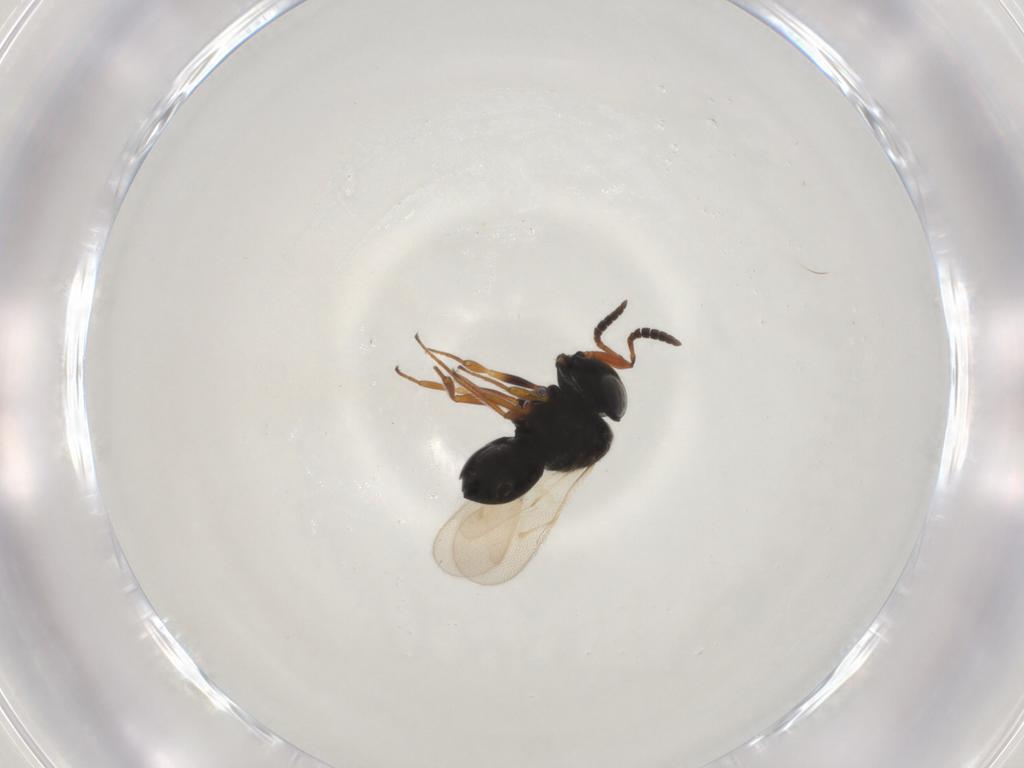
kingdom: Animalia
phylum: Arthropoda
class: Insecta
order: Hymenoptera
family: Scelionidae
